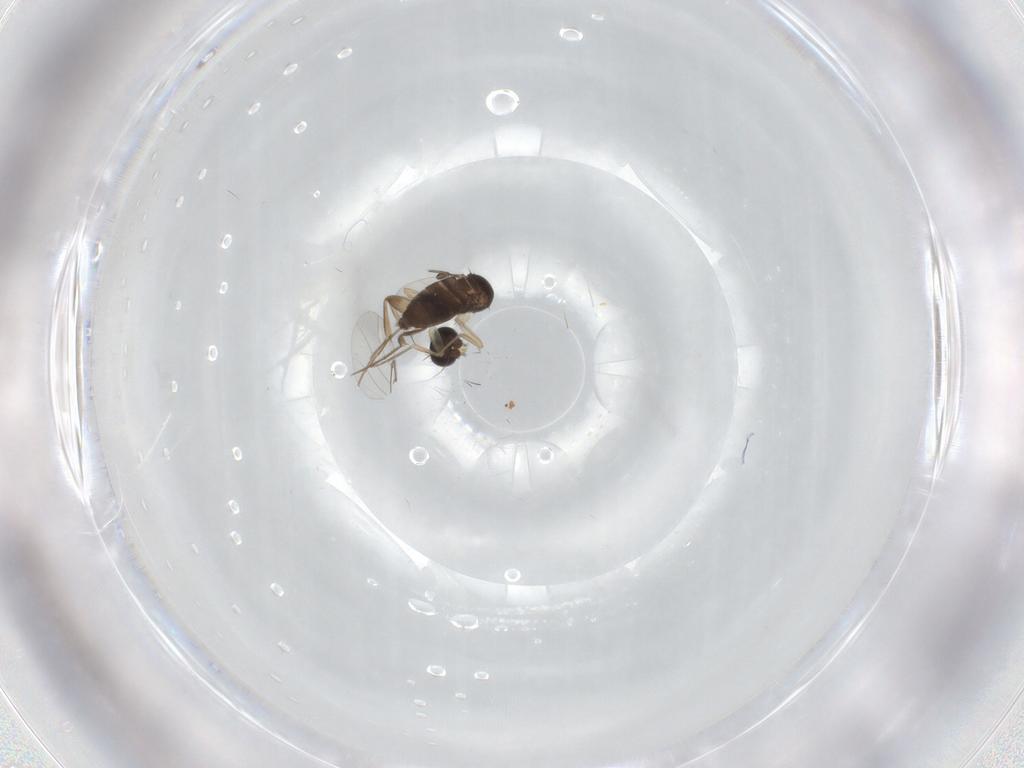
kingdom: Animalia
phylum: Arthropoda
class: Insecta
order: Diptera
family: Phoridae
